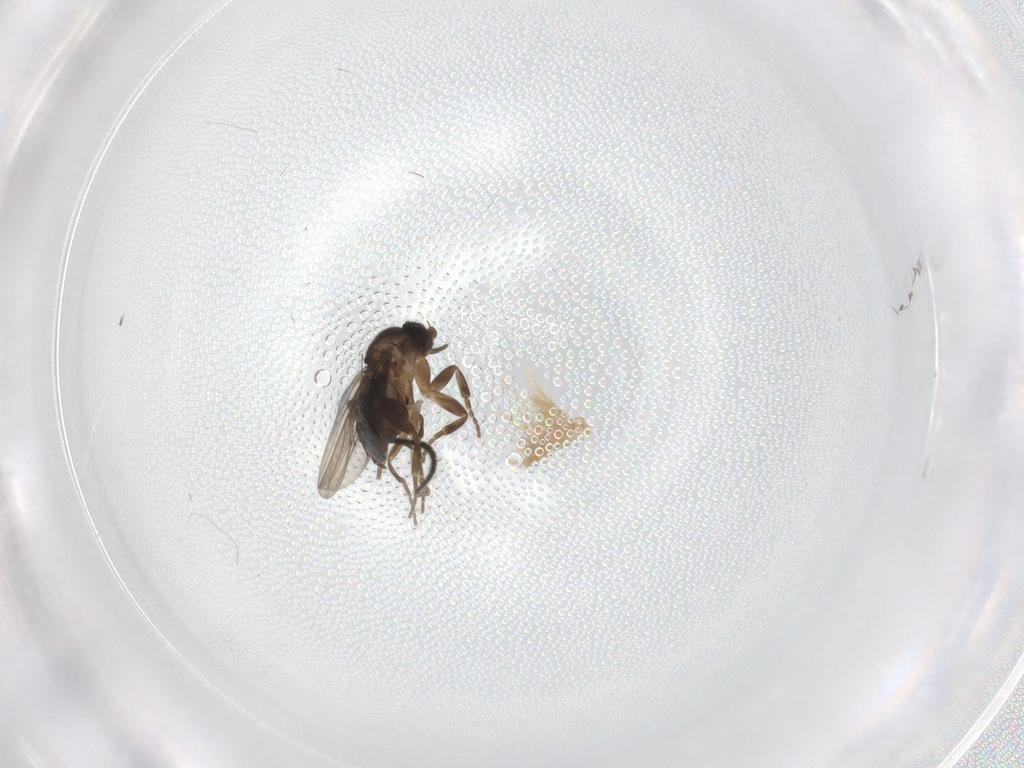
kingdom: Animalia
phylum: Arthropoda
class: Insecta
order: Diptera
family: Cecidomyiidae
